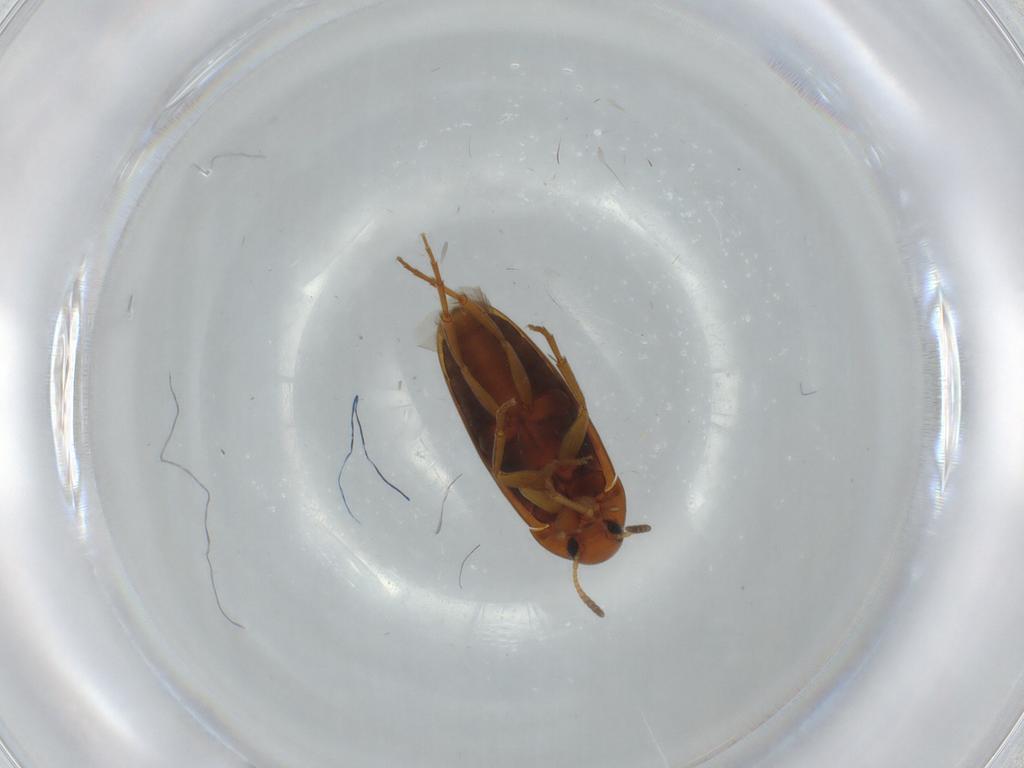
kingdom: Animalia
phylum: Arthropoda
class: Insecta
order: Coleoptera
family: Scraptiidae
